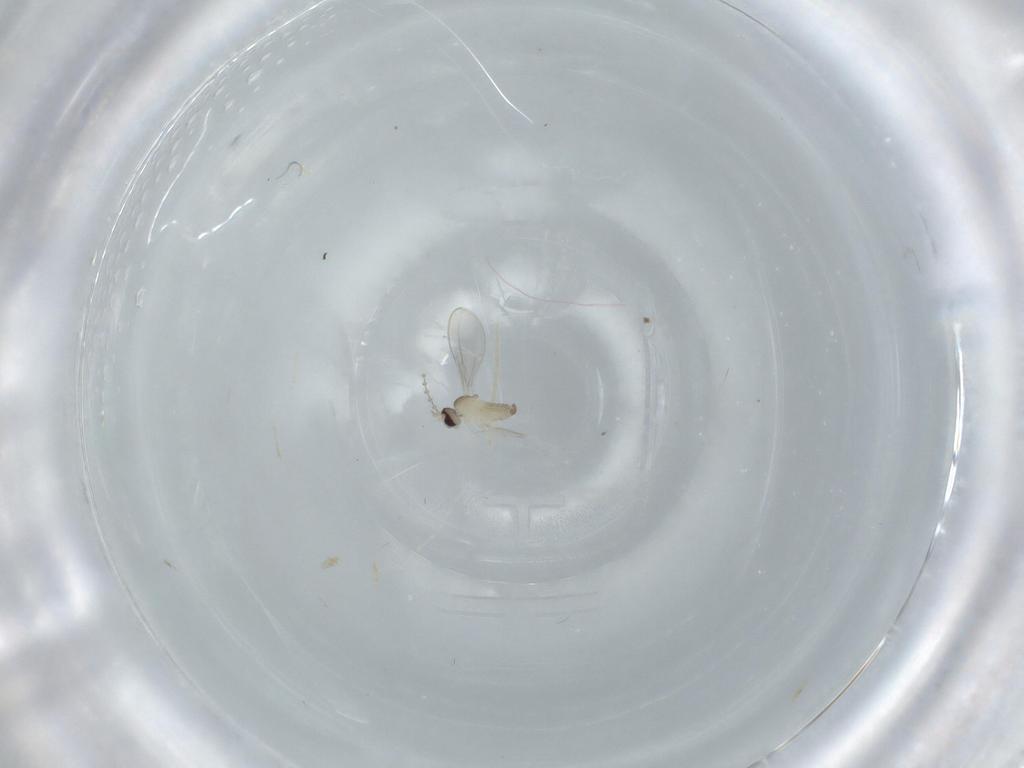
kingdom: Animalia
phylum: Arthropoda
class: Insecta
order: Diptera
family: Cecidomyiidae
